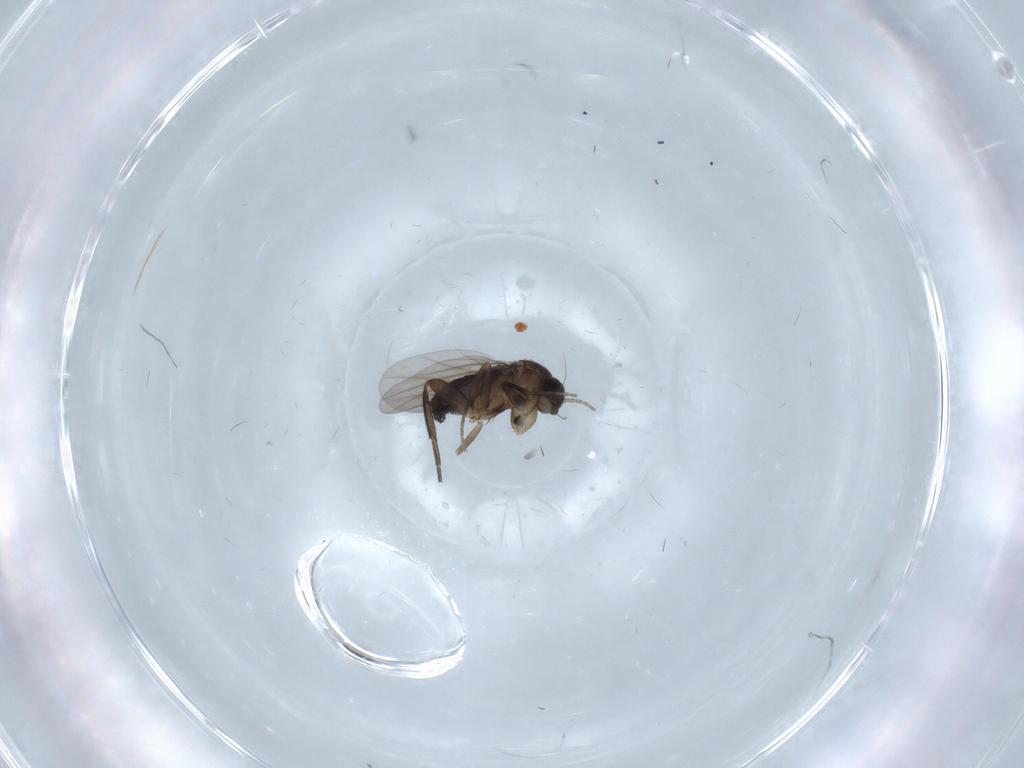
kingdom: Animalia
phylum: Arthropoda
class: Insecta
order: Diptera
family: Phoridae
